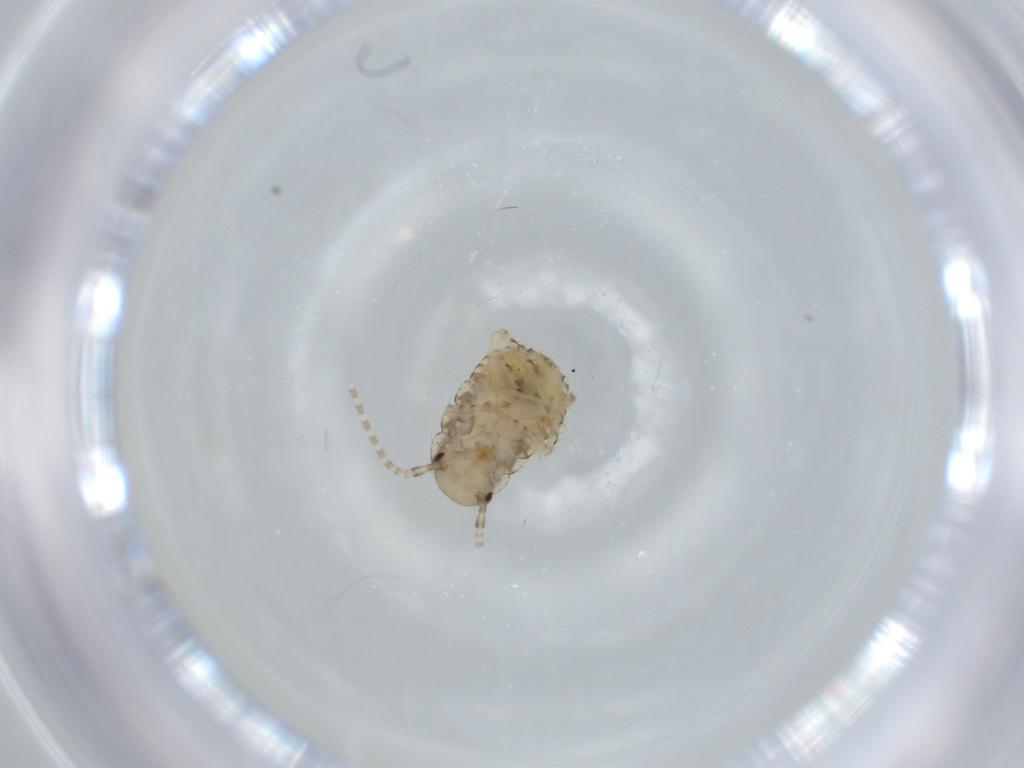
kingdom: Animalia
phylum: Arthropoda
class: Insecta
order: Blattodea
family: Ectobiidae
